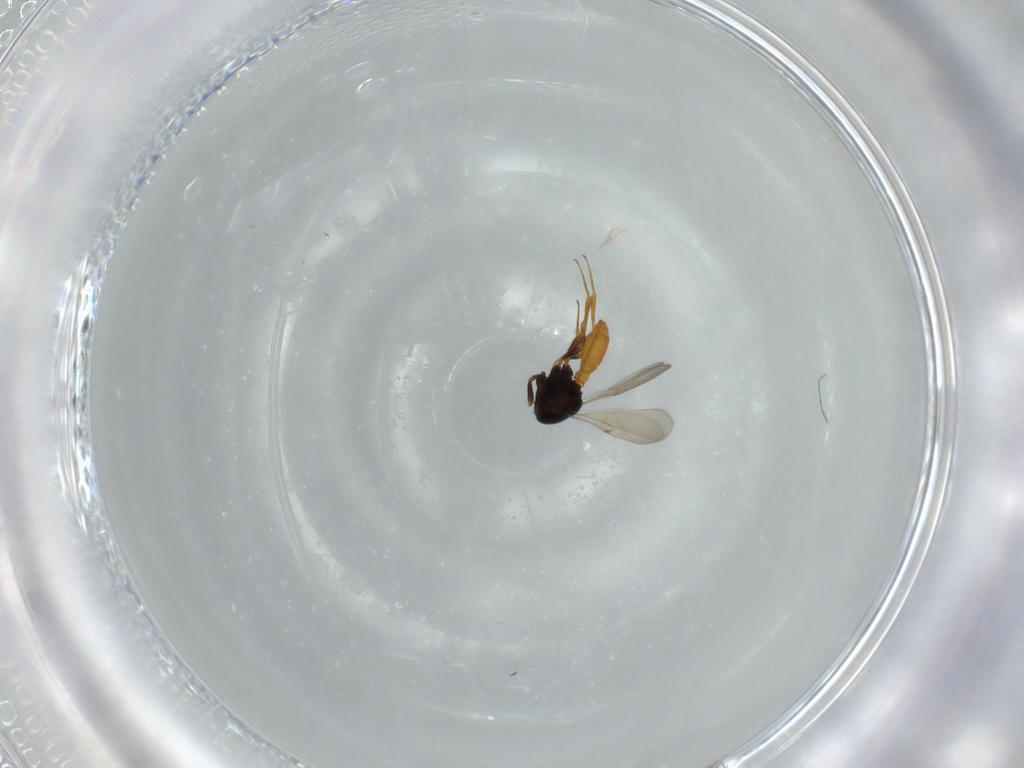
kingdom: Animalia
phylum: Arthropoda
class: Insecta
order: Hymenoptera
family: Scelionidae
